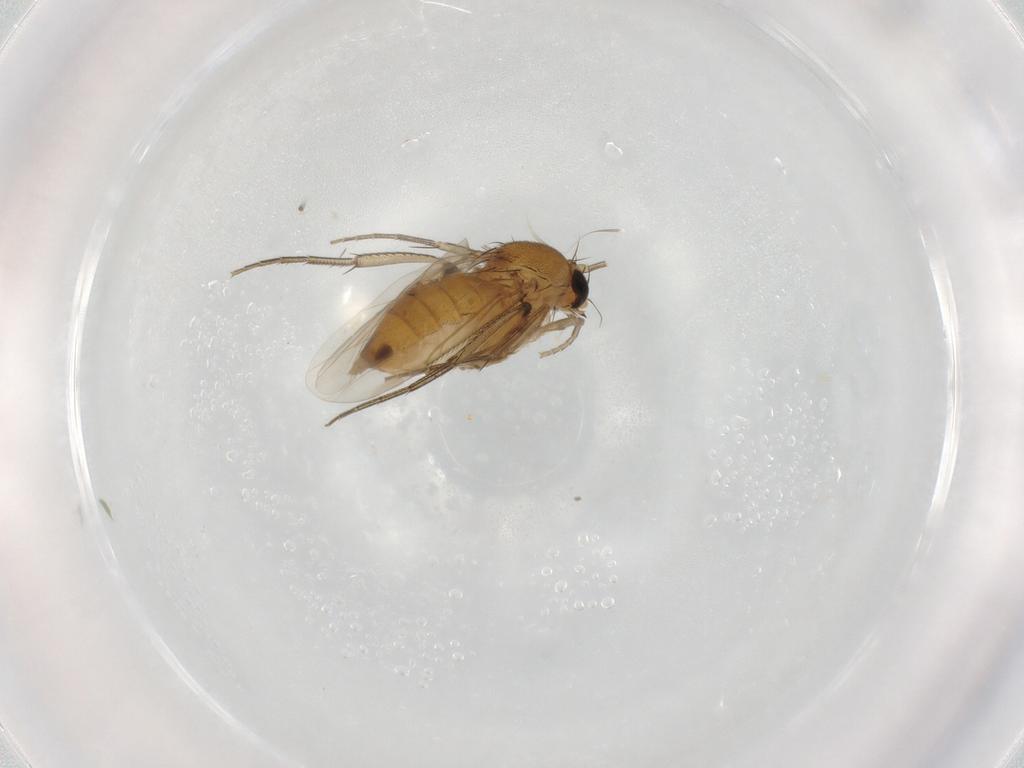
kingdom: Animalia
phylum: Arthropoda
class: Insecta
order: Diptera
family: Phoridae
